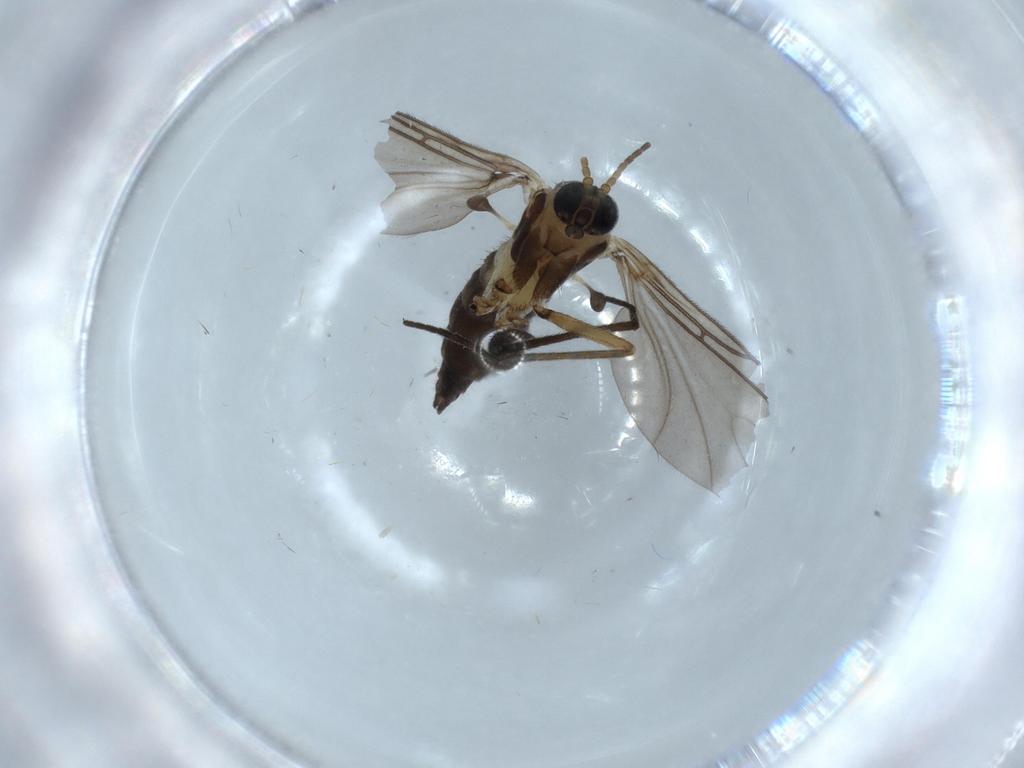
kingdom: Animalia
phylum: Arthropoda
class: Insecta
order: Diptera
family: Sciaridae
